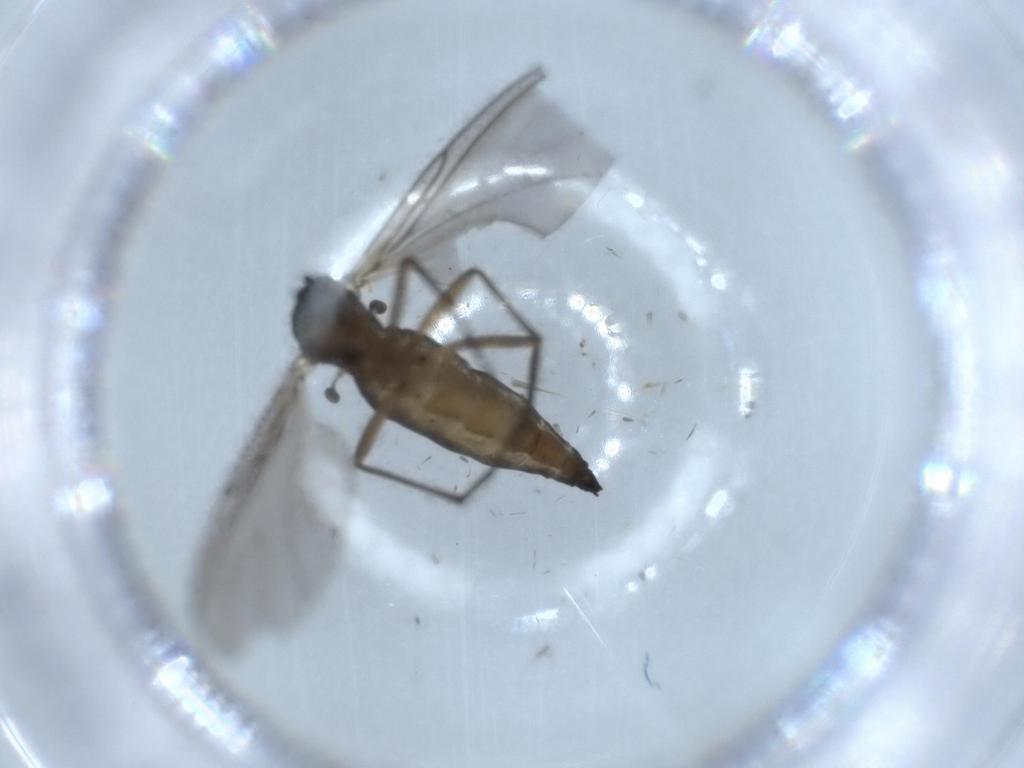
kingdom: Animalia
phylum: Arthropoda
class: Insecta
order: Diptera
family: Sciaridae
